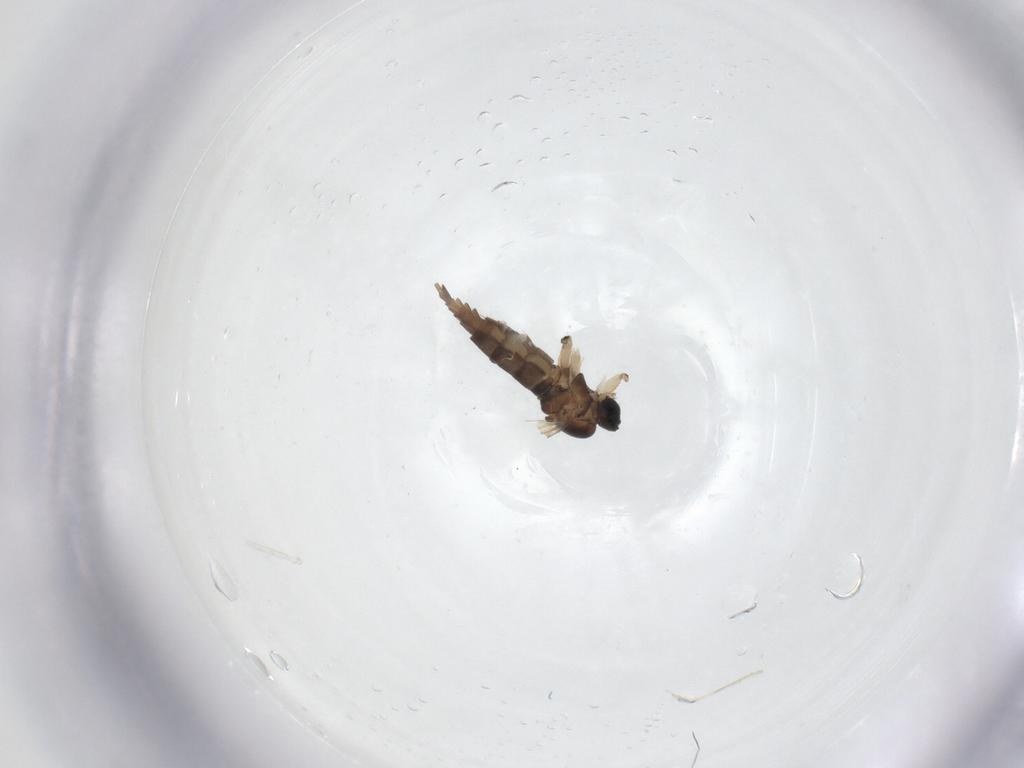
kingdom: Animalia
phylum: Arthropoda
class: Insecta
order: Diptera
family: Sciaridae
